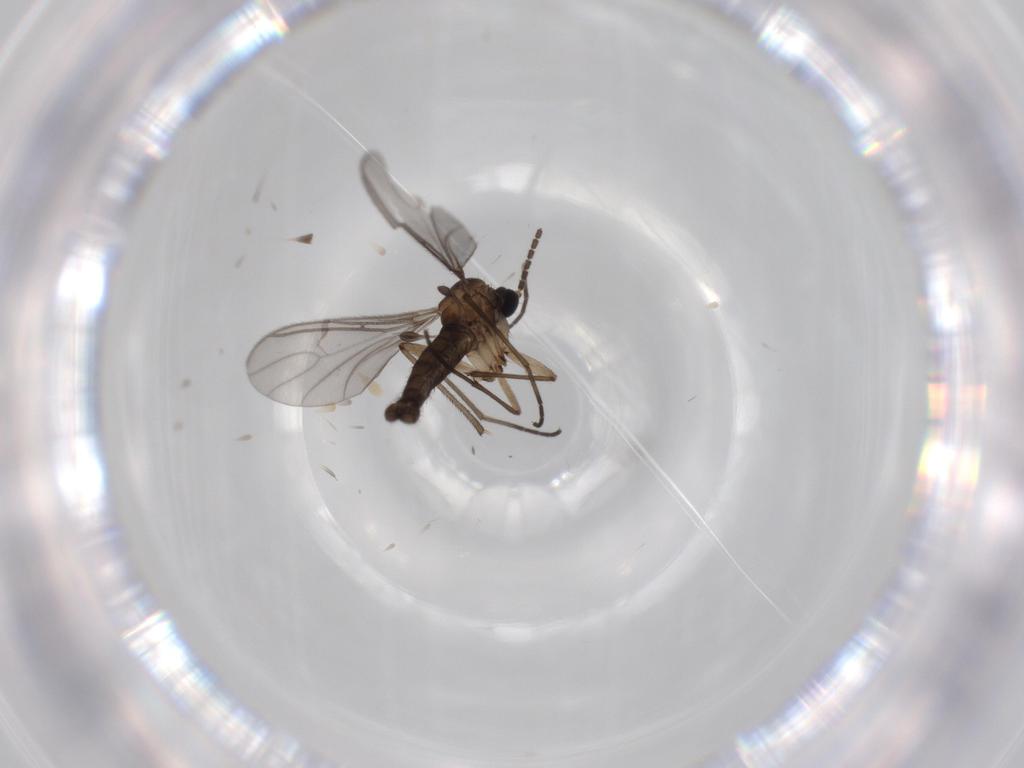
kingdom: Animalia
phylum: Arthropoda
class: Insecta
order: Diptera
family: Sciaridae
